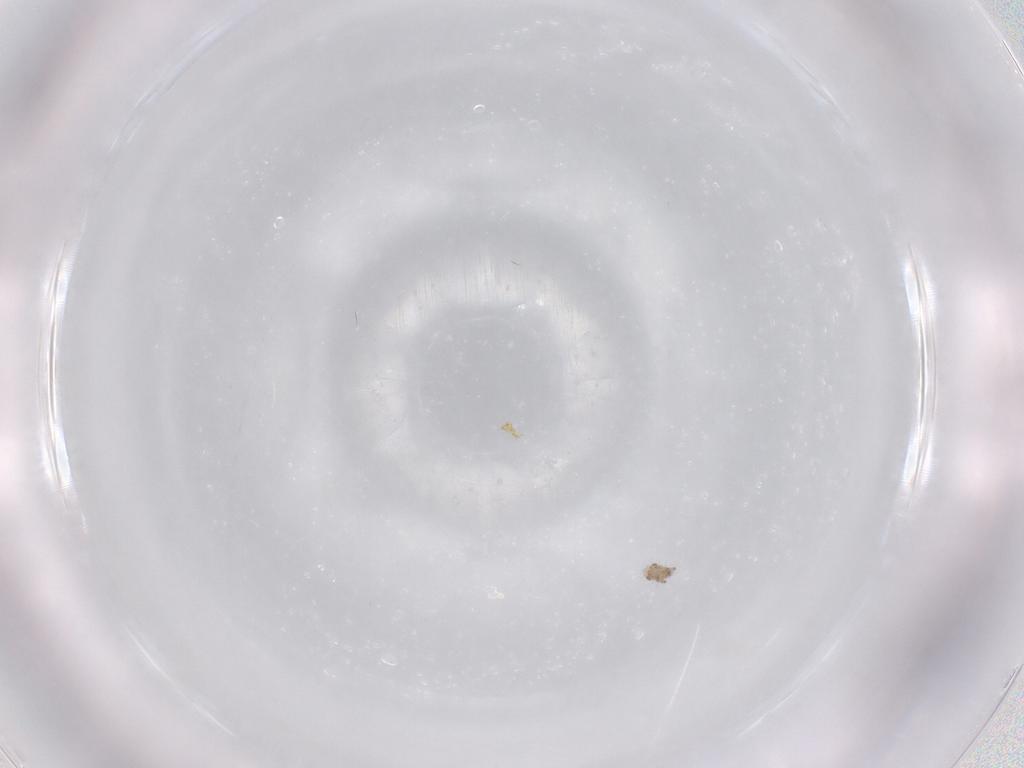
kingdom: Animalia
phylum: Arthropoda
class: Arachnida
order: Sarcoptiformes
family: Humerobatidae
